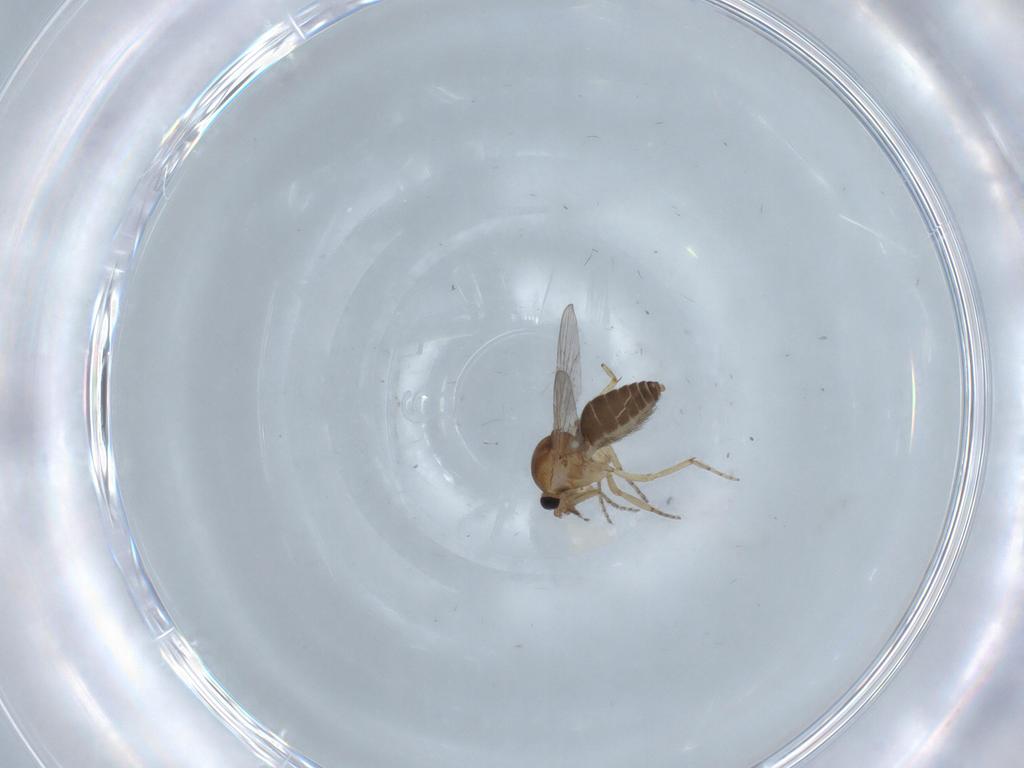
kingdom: Animalia
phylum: Arthropoda
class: Insecta
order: Diptera
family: Ceratopogonidae
